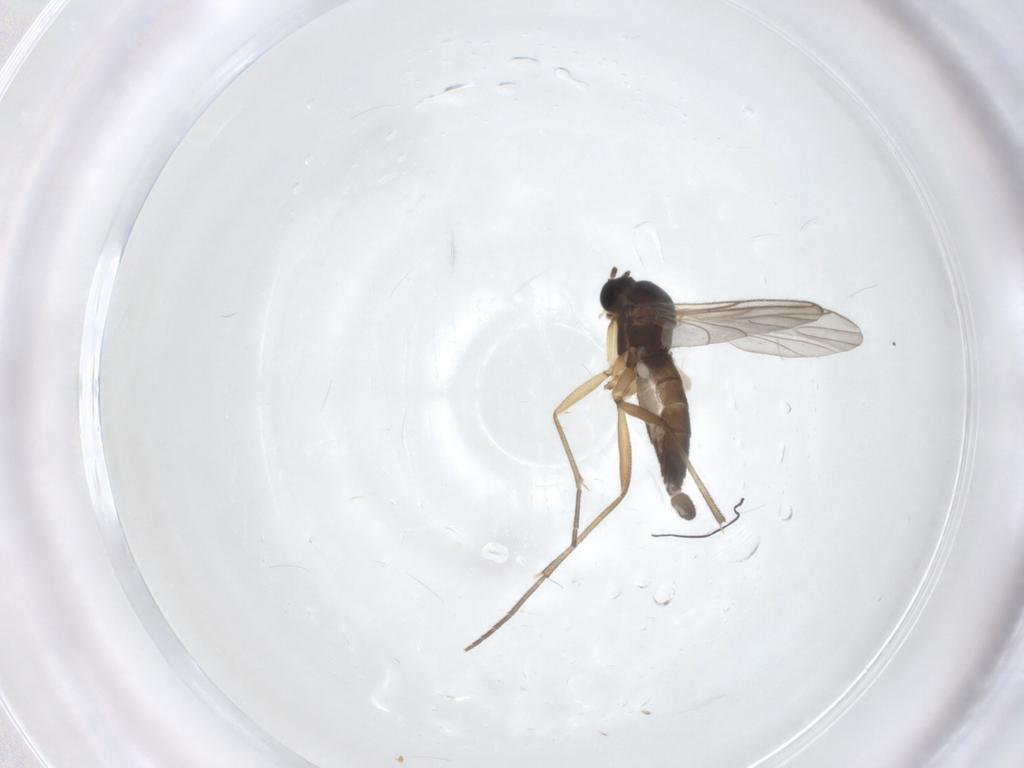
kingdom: Animalia
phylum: Arthropoda
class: Insecta
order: Diptera
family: Sciaridae
